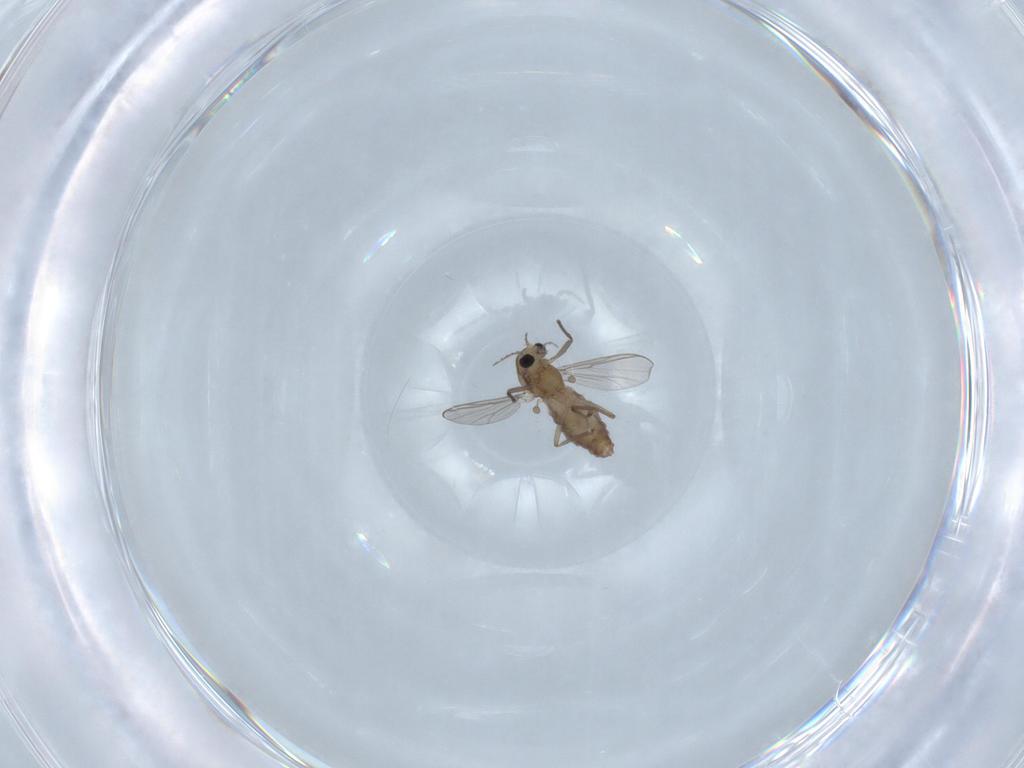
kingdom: Animalia
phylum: Arthropoda
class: Insecta
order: Diptera
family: Chironomidae
